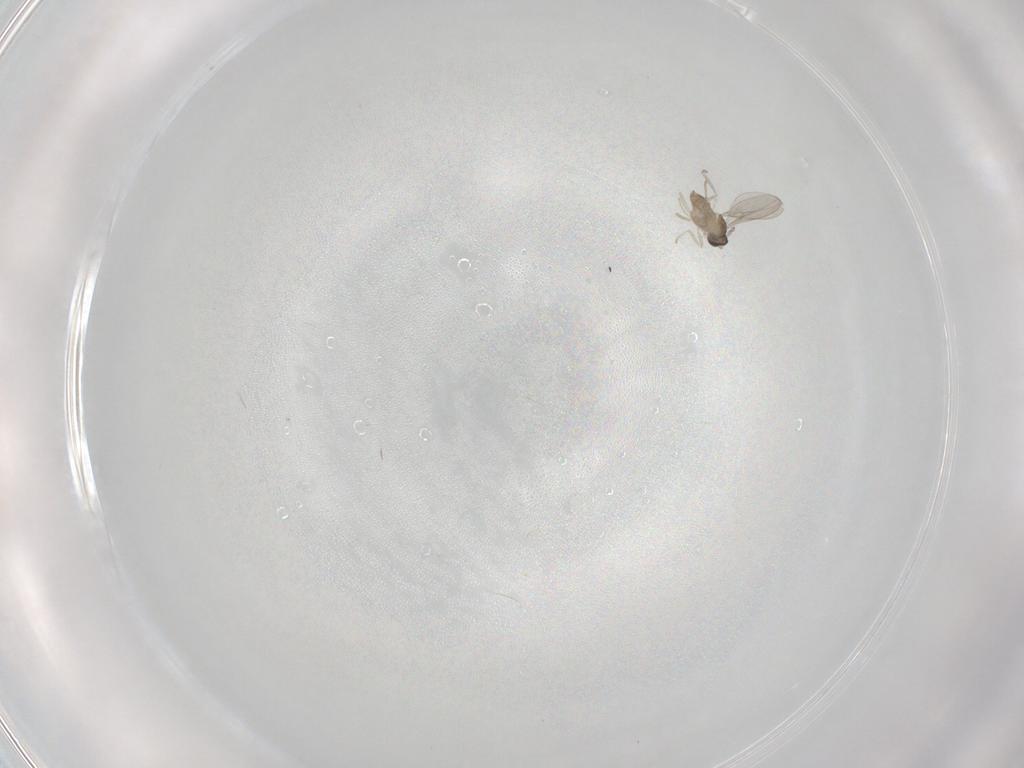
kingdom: Animalia
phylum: Arthropoda
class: Insecta
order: Diptera
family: Cecidomyiidae
